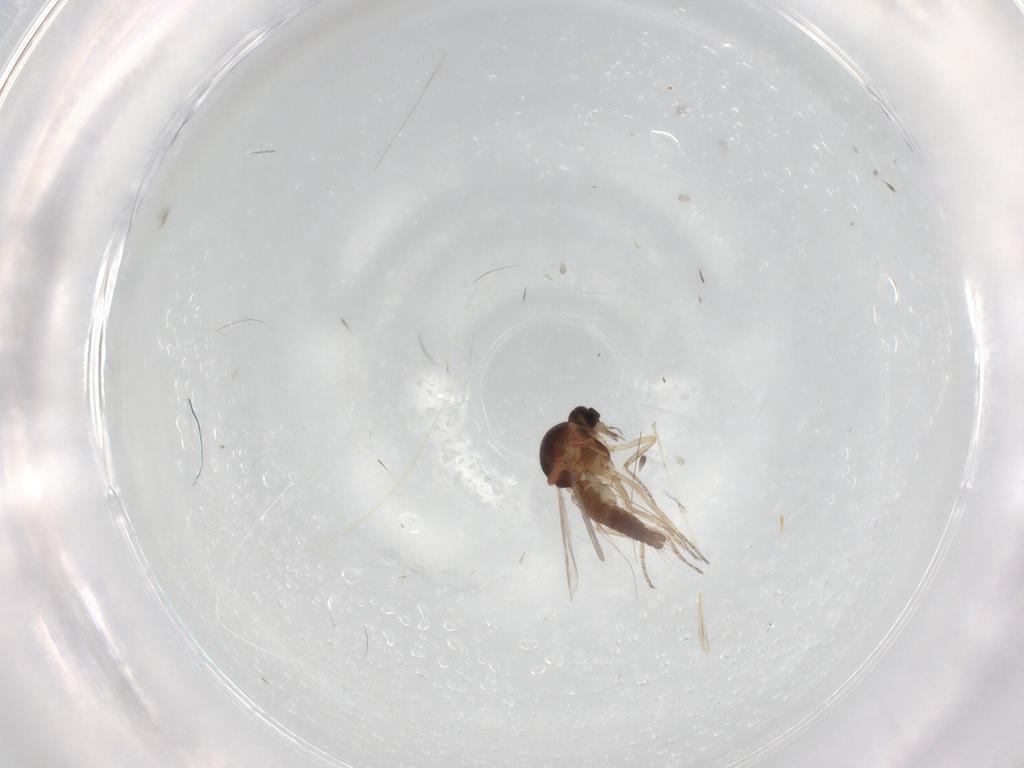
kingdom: Animalia
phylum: Arthropoda
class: Insecta
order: Diptera
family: Ceratopogonidae
